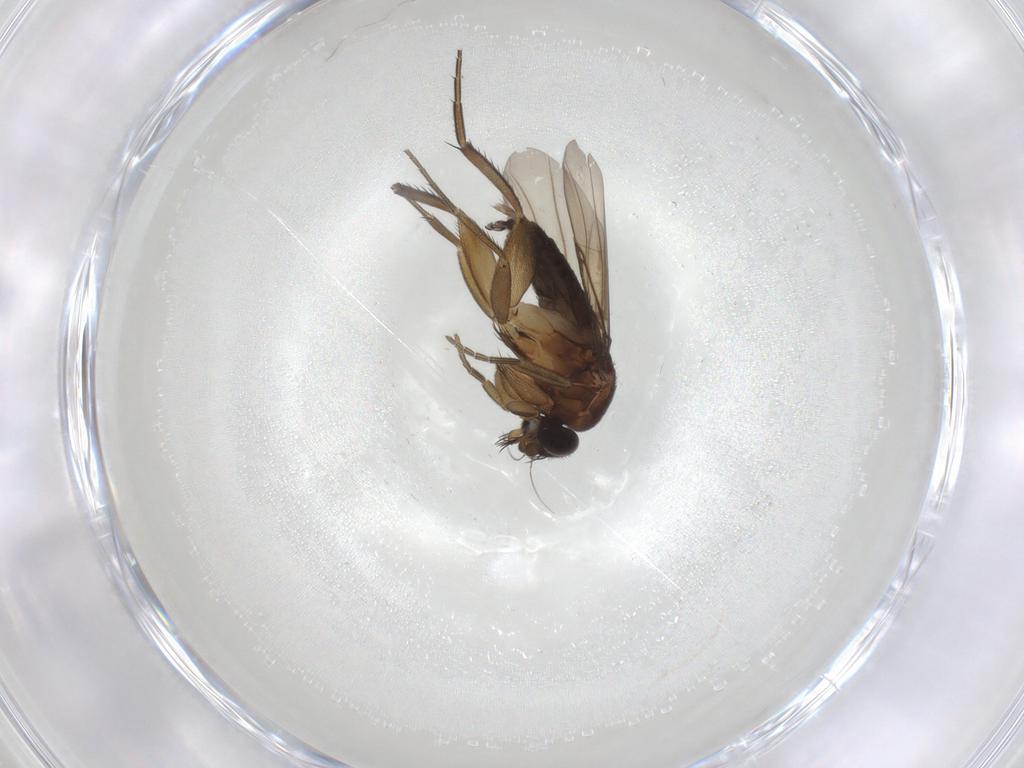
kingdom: Animalia
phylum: Arthropoda
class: Insecta
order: Diptera
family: Phoridae
